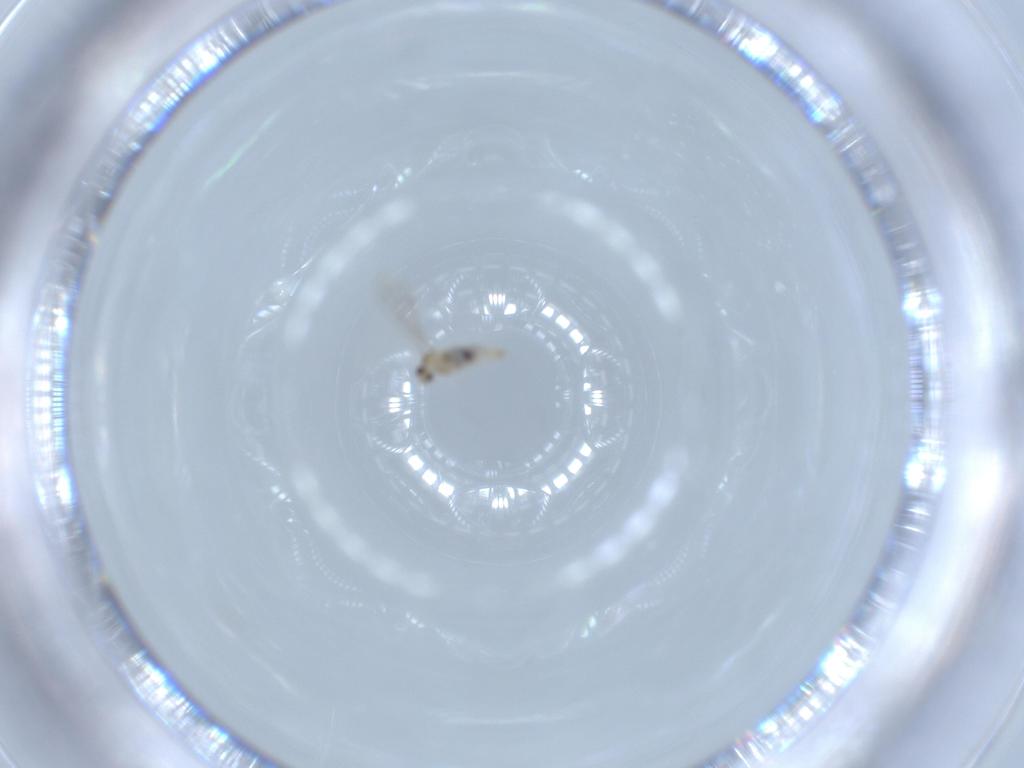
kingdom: Animalia
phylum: Arthropoda
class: Insecta
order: Diptera
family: Cecidomyiidae
